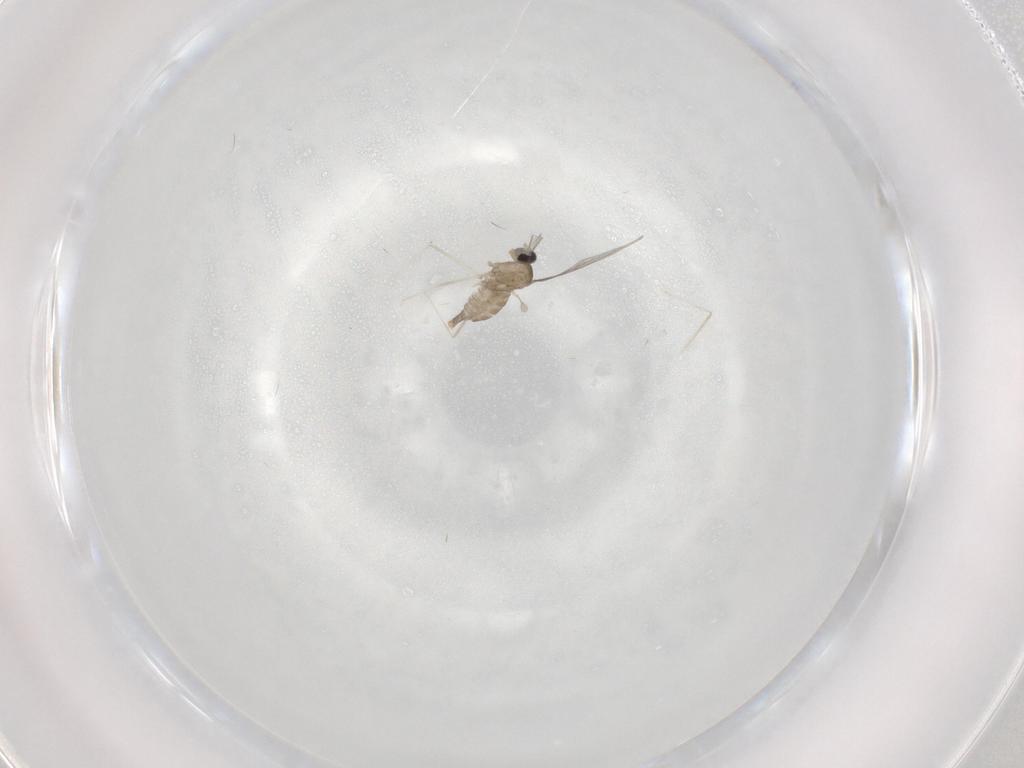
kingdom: Animalia
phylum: Arthropoda
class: Insecta
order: Diptera
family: Cecidomyiidae
